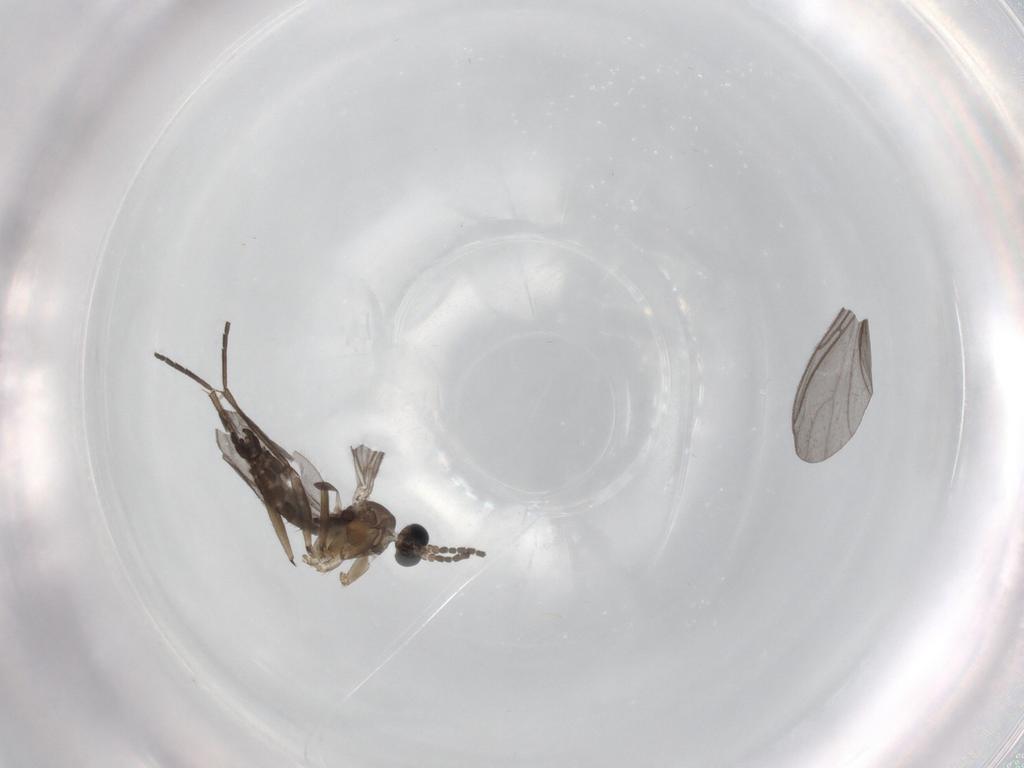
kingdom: Animalia
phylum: Arthropoda
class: Insecta
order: Diptera
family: Sciaridae
